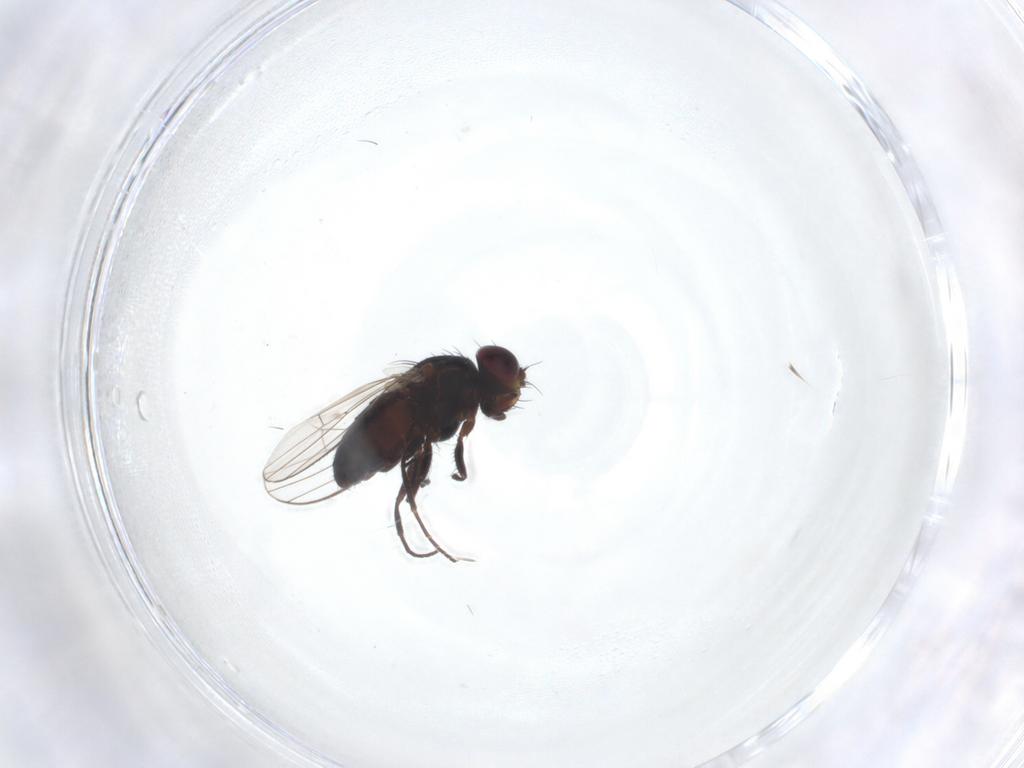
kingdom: Animalia
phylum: Arthropoda
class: Insecta
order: Diptera
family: Carnidae
